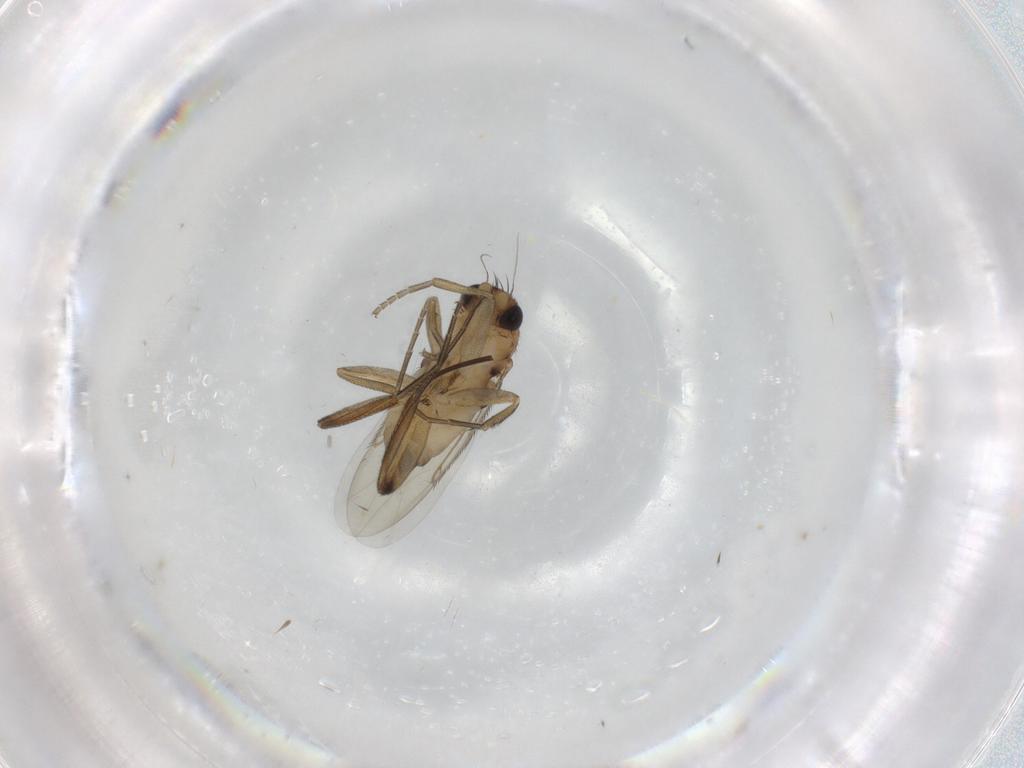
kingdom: Animalia
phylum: Arthropoda
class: Insecta
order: Diptera
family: Phoridae
